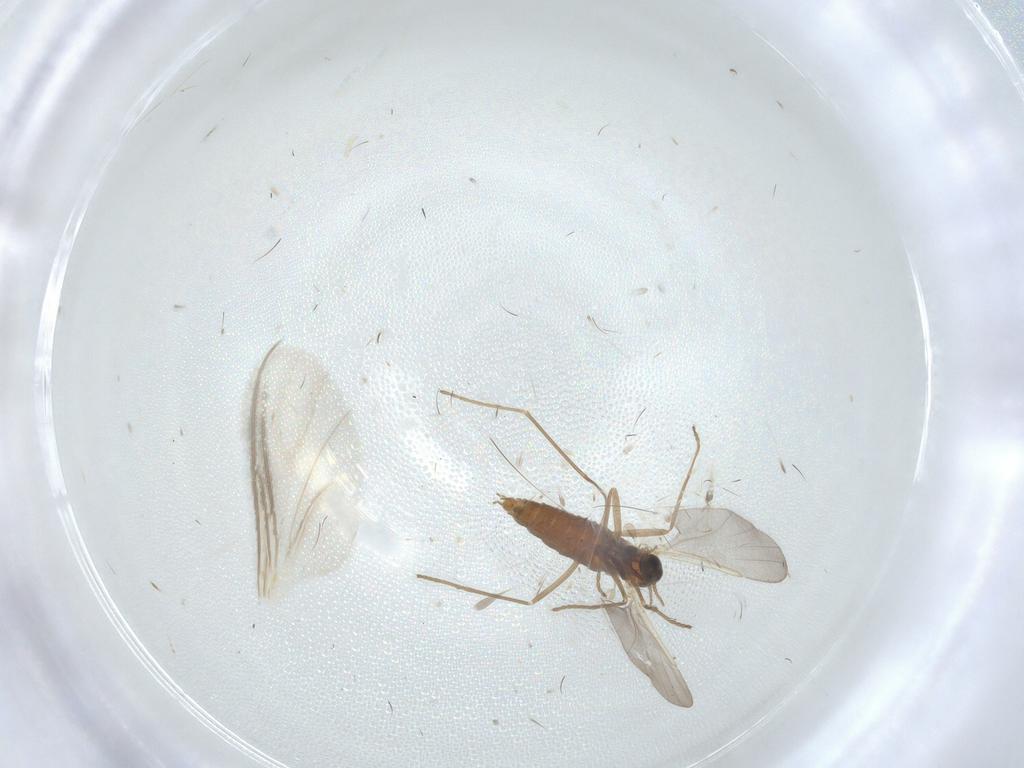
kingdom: Animalia
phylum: Arthropoda
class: Insecta
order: Diptera
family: Cecidomyiidae
